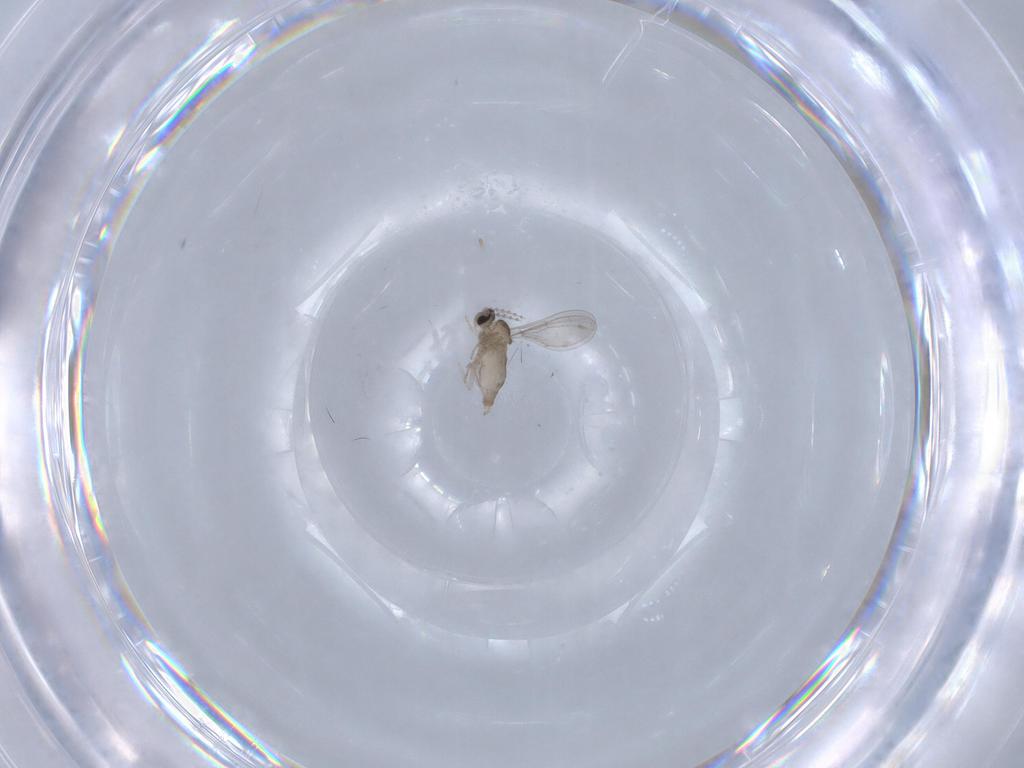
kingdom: Animalia
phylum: Arthropoda
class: Insecta
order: Diptera
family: Cecidomyiidae
